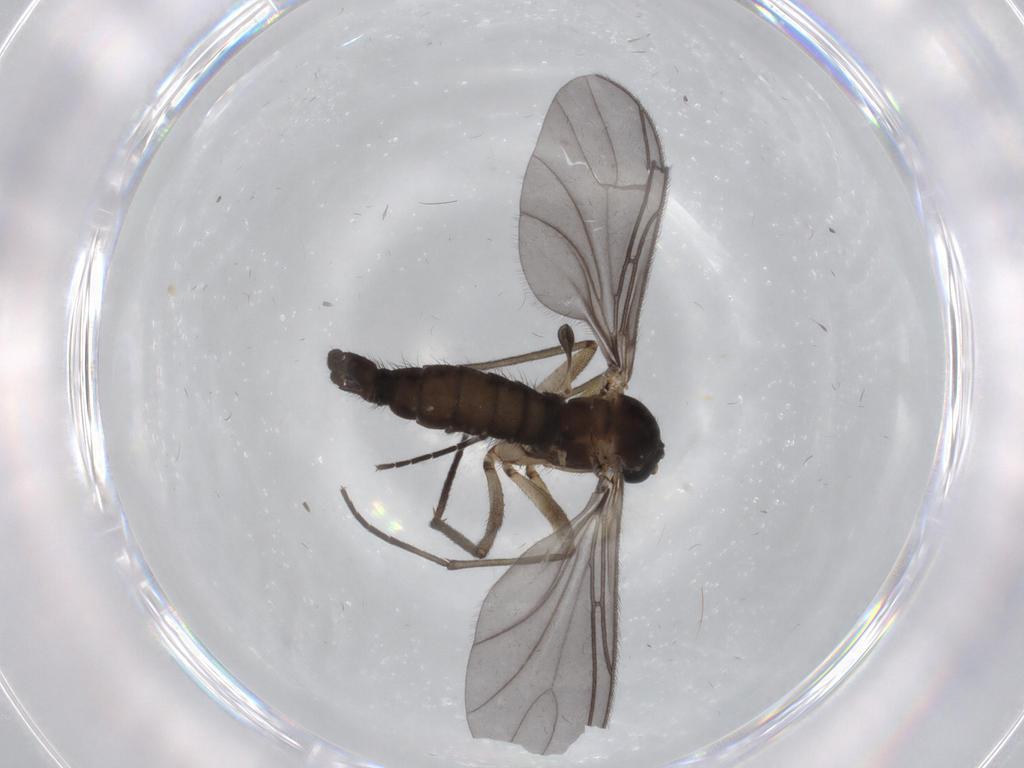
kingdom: Animalia
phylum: Arthropoda
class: Insecta
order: Diptera
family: Sciaridae
